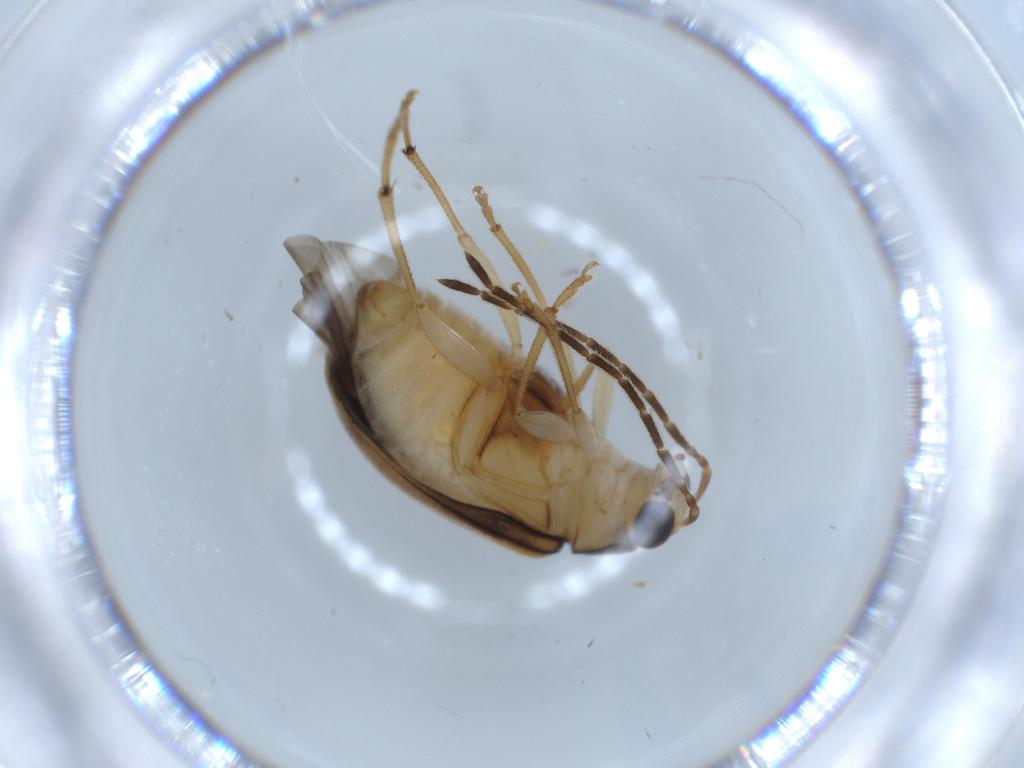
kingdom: Animalia
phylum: Arthropoda
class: Insecta
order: Coleoptera
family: Chrysomelidae
